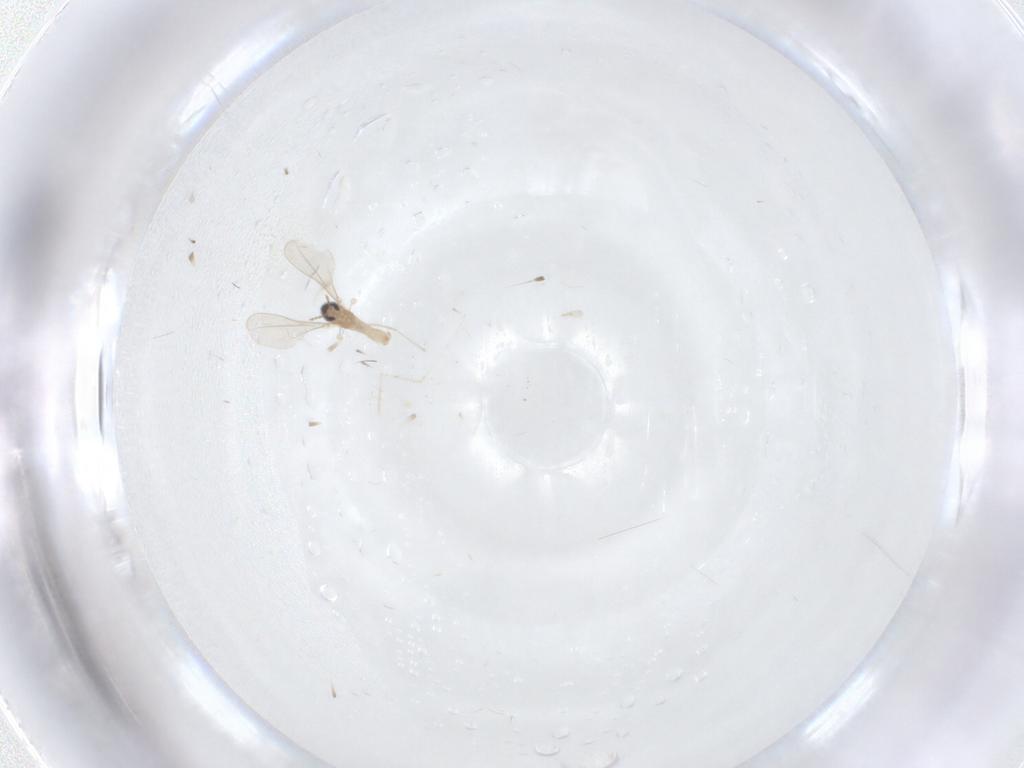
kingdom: Animalia
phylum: Arthropoda
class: Insecta
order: Diptera
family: Cecidomyiidae
